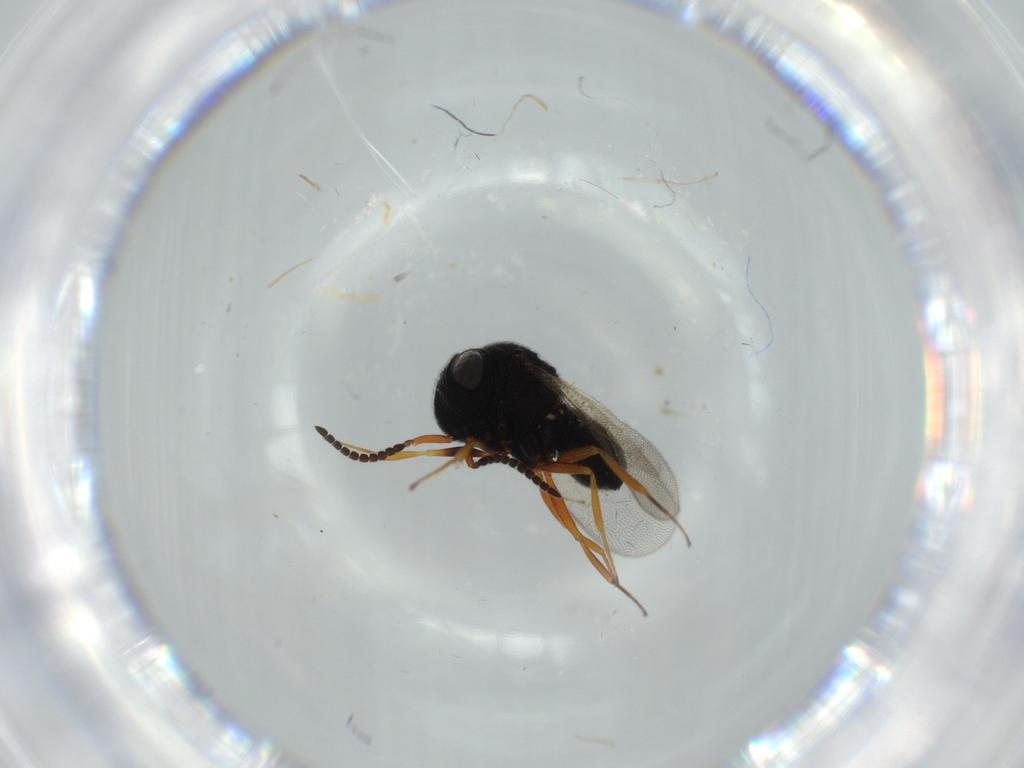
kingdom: Animalia
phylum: Arthropoda
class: Insecta
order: Hymenoptera
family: Scelionidae
